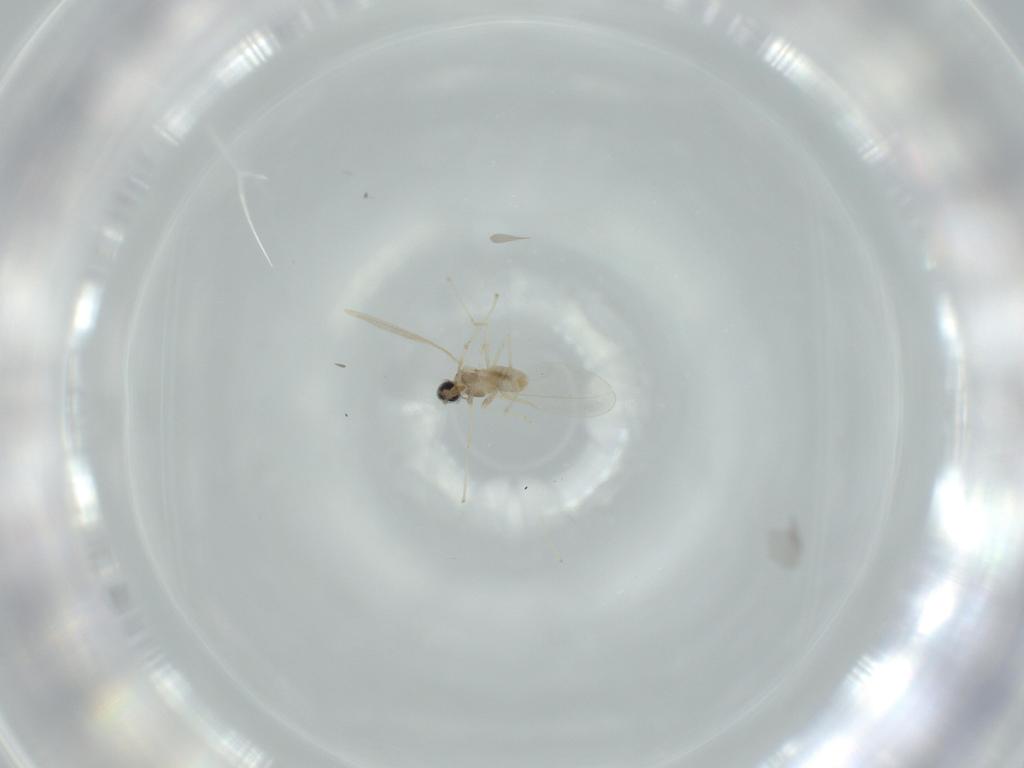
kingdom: Animalia
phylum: Arthropoda
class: Insecta
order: Diptera
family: Cecidomyiidae
